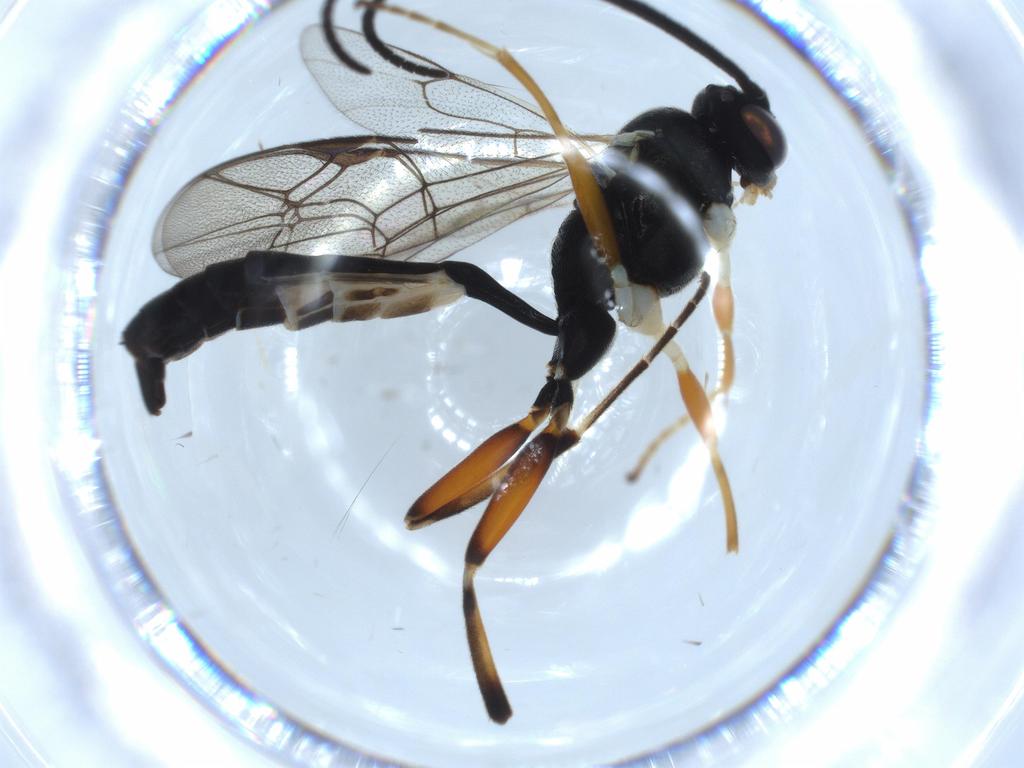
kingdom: Animalia
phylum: Arthropoda
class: Insecta
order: Hymenoptera
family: Ichneumonidae
